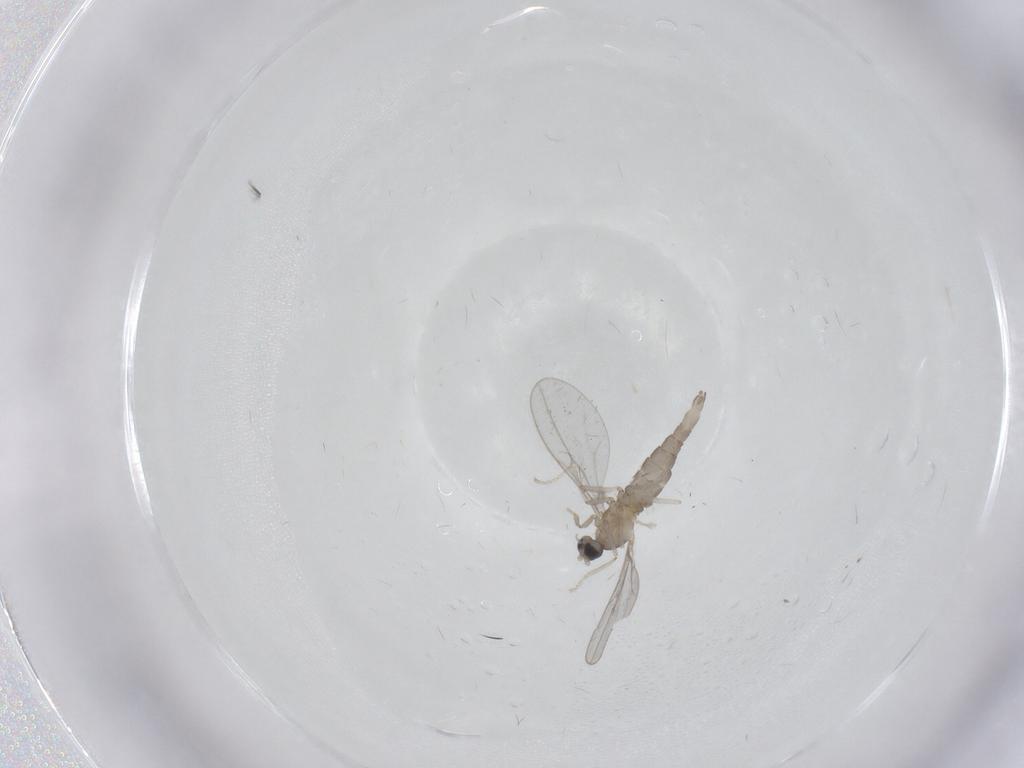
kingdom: Animalia
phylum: Arthropoda
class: Insecta
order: Diptera
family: Cecidomyiidae
